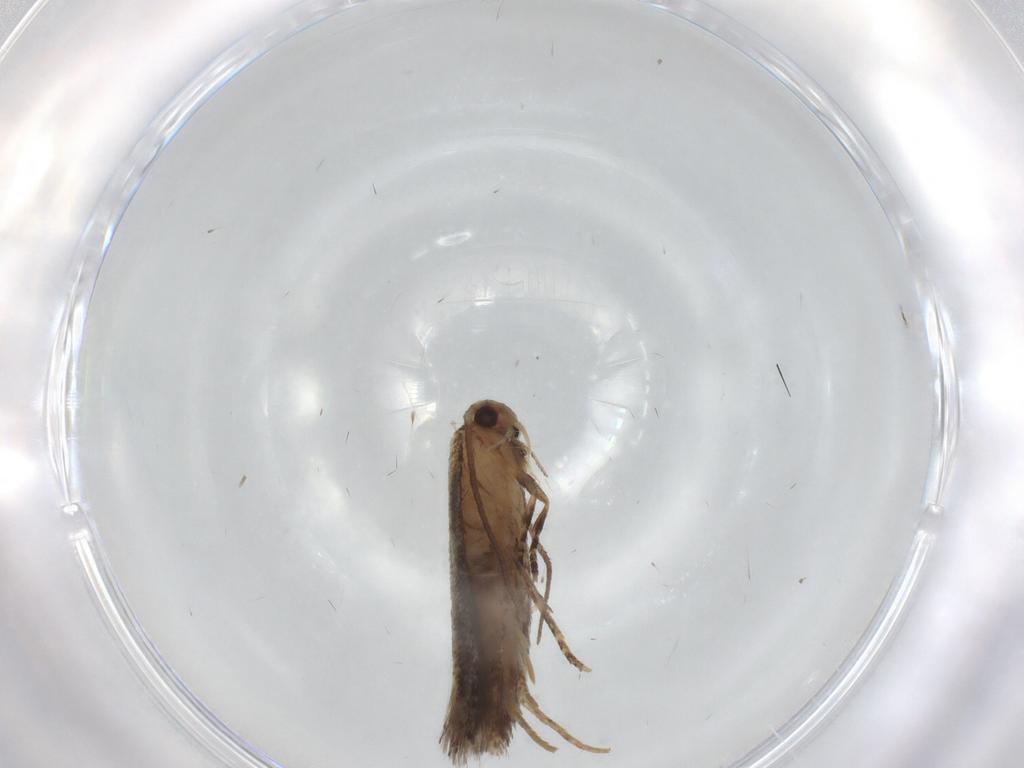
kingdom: Animalia
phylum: Arthropoda
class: Insecta
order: Lepidoptera
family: Elachistidae
